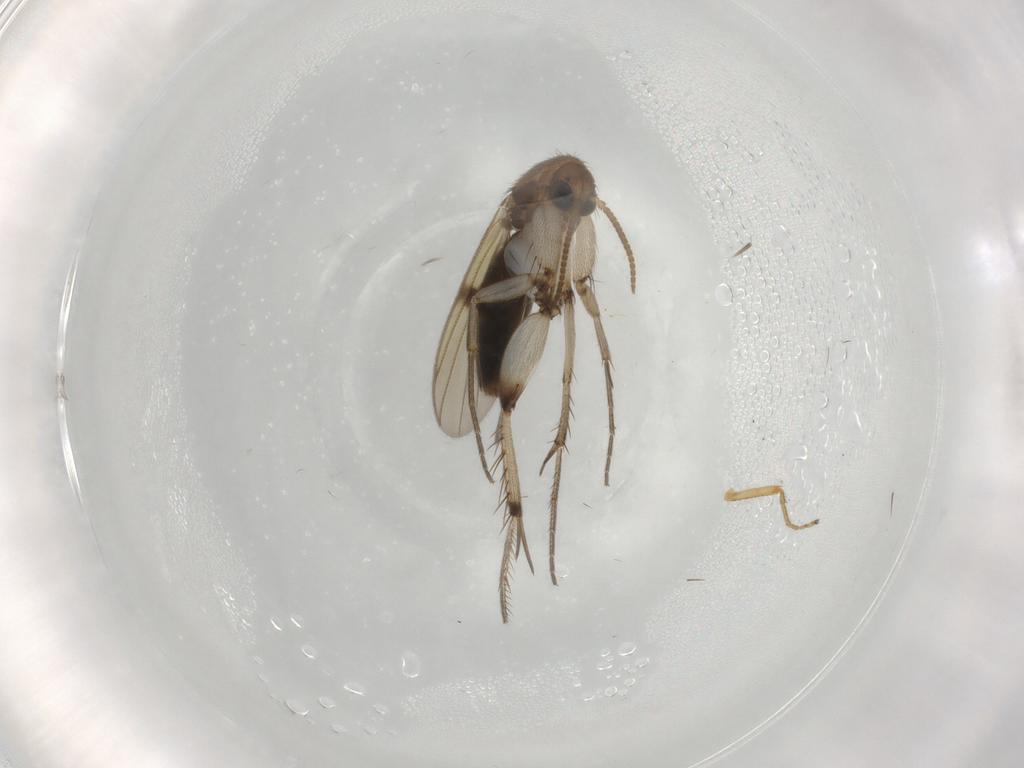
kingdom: Animalia
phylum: Arthropoda
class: Insecta
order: Diptera
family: Mycetophilidae
